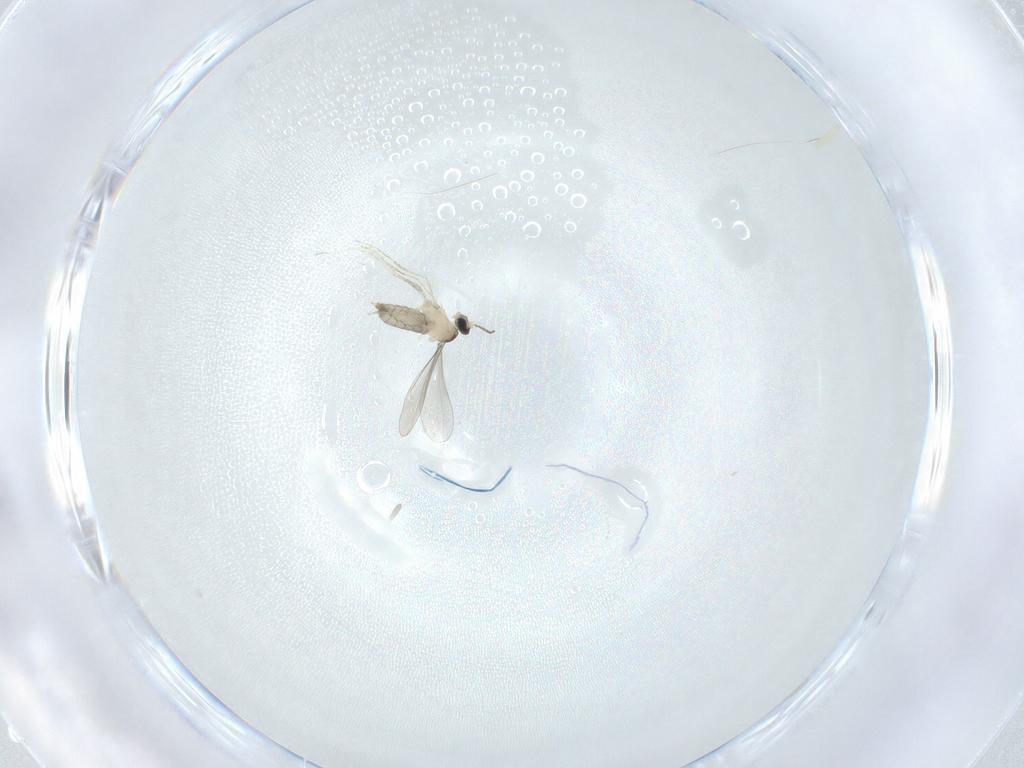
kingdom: Animalia
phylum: Arthropoda
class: Insecta
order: Diptera
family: Cecidomyiidae
